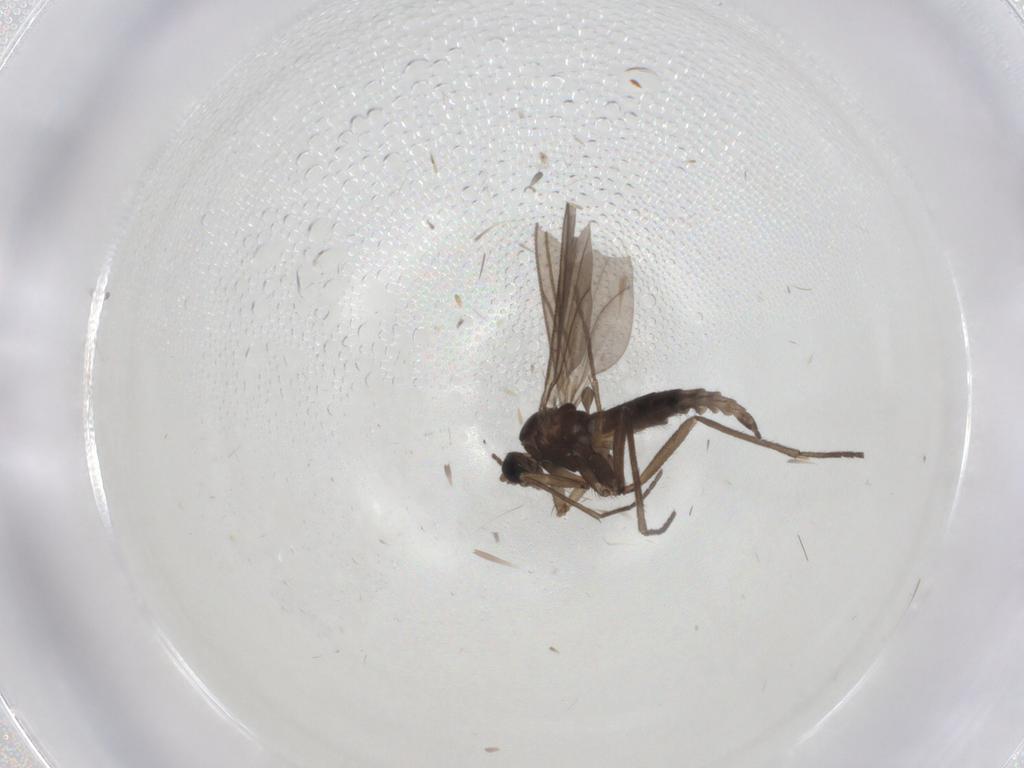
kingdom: Animalia
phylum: Arthropoda
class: Insecta
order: Diptera
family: Sciaridae
